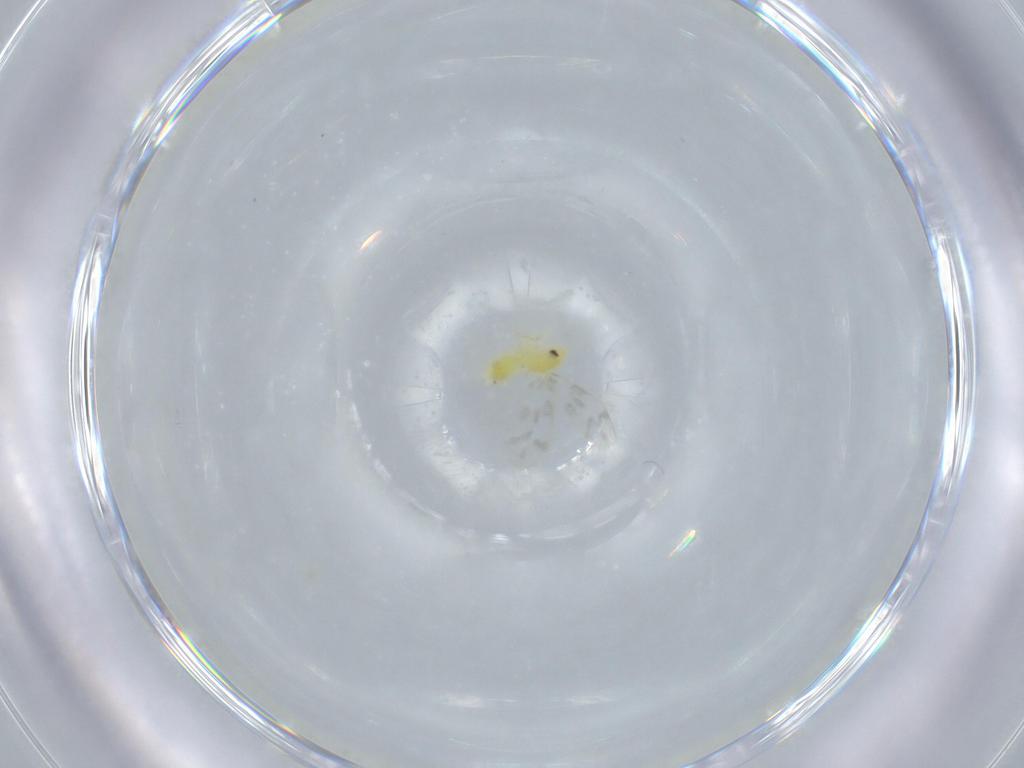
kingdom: Animalia
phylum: Arthropoda
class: Insecta
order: Hemiptera
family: Aleyrodidae
